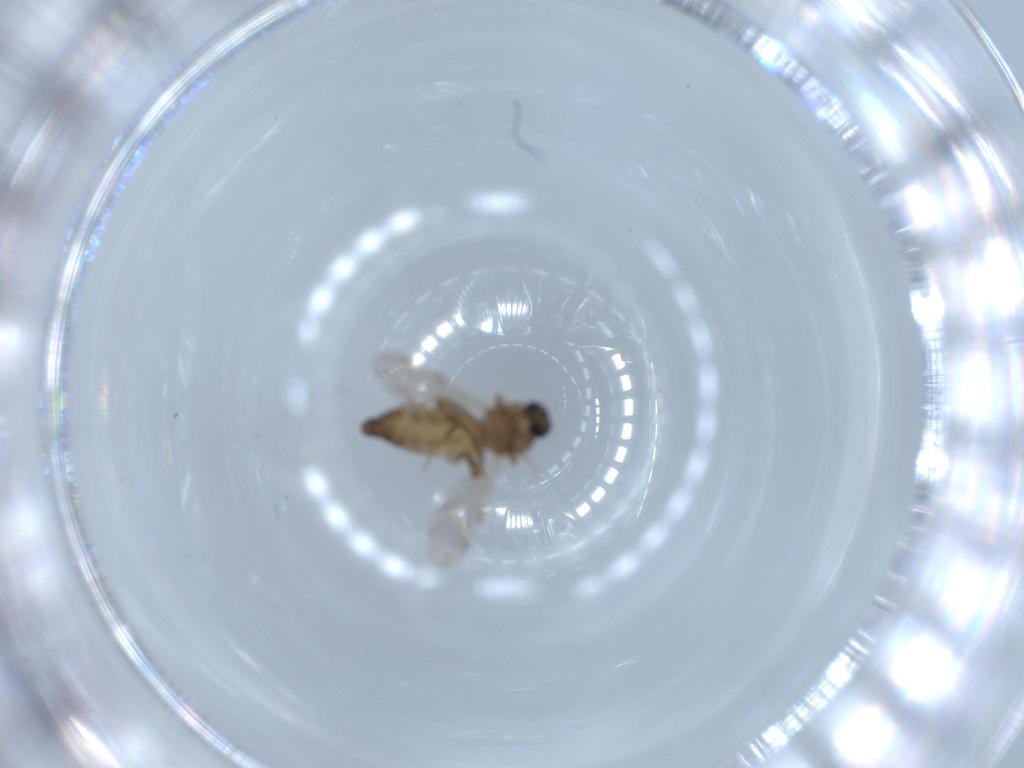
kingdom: Animalia
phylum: Arthropoda
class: Insecta
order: Diptera
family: Ceratopogonidae
